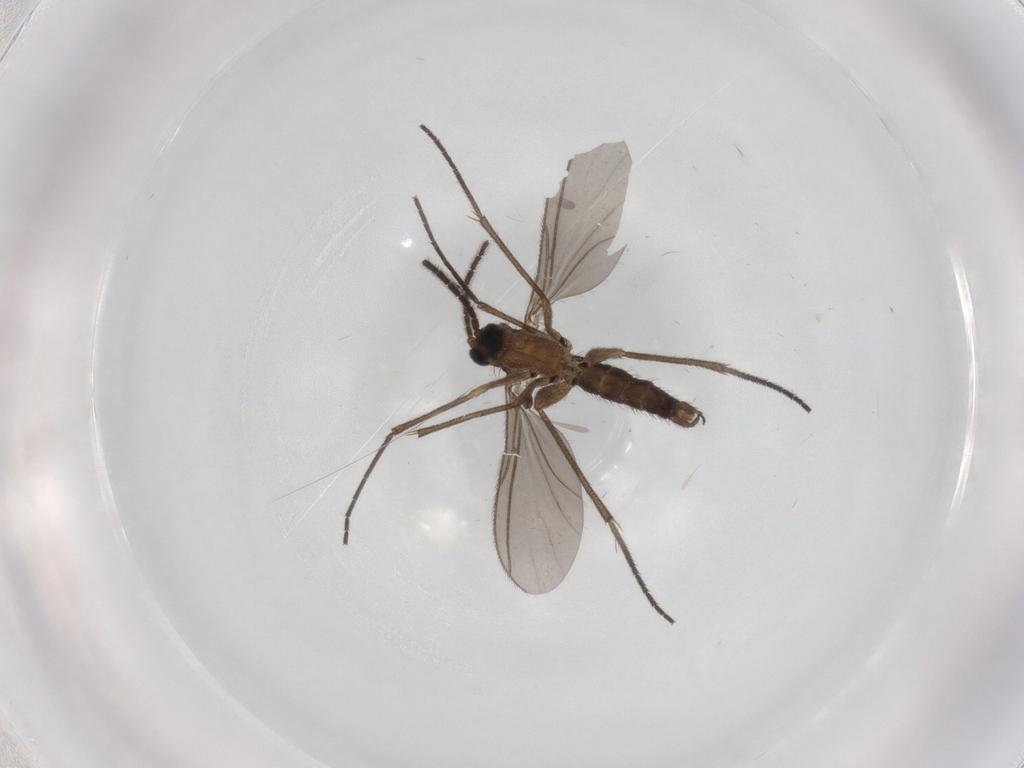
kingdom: Animalia
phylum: Arthropoda
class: Insecta
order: Diptera
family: Sciaridae
